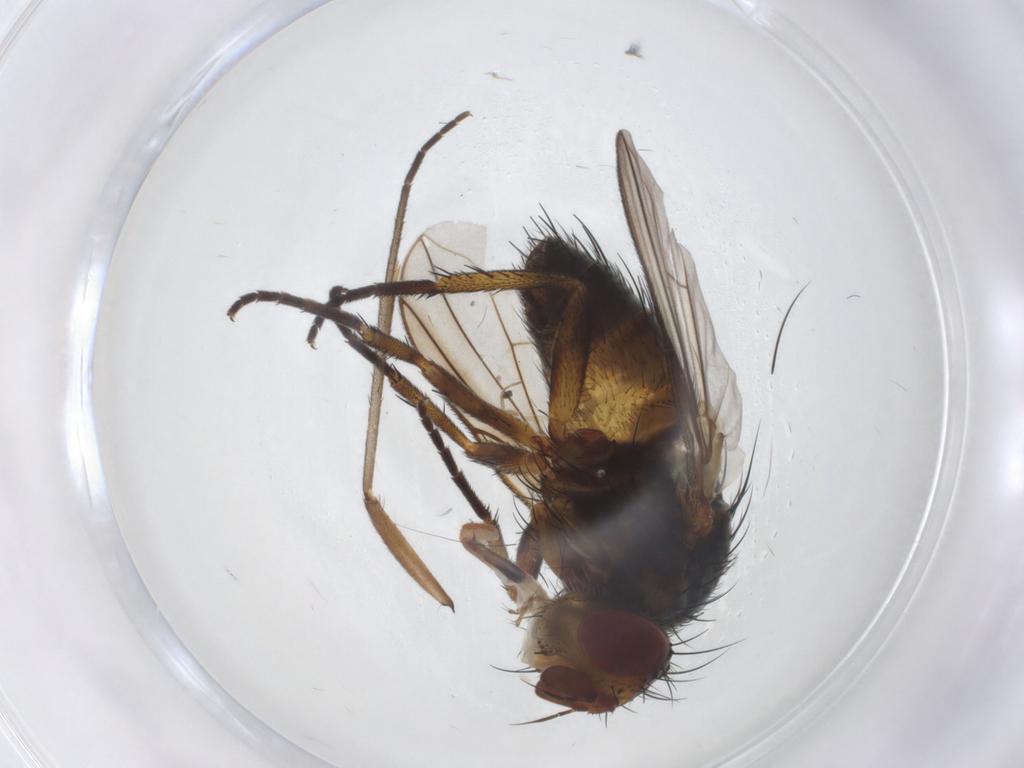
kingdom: Animalia
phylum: Arthropoda
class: Insecta
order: Diptera
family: Tachinidae
